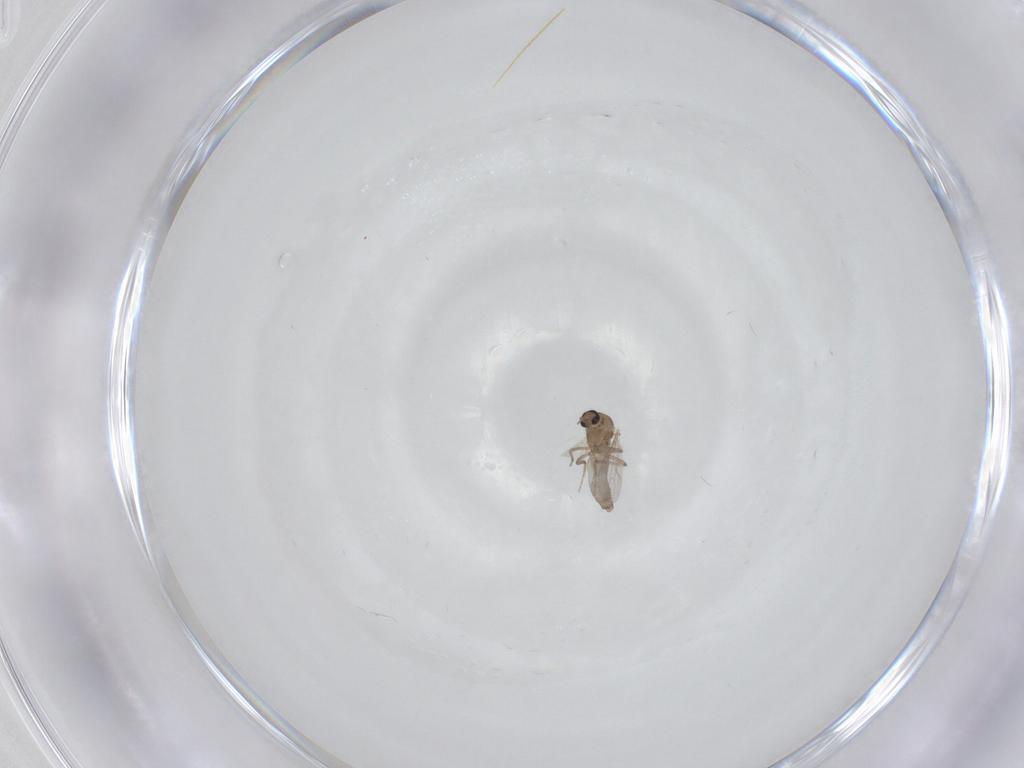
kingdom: Animalia
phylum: Arthropoda
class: Insecta
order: Diptera
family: Ceratopogonidae
